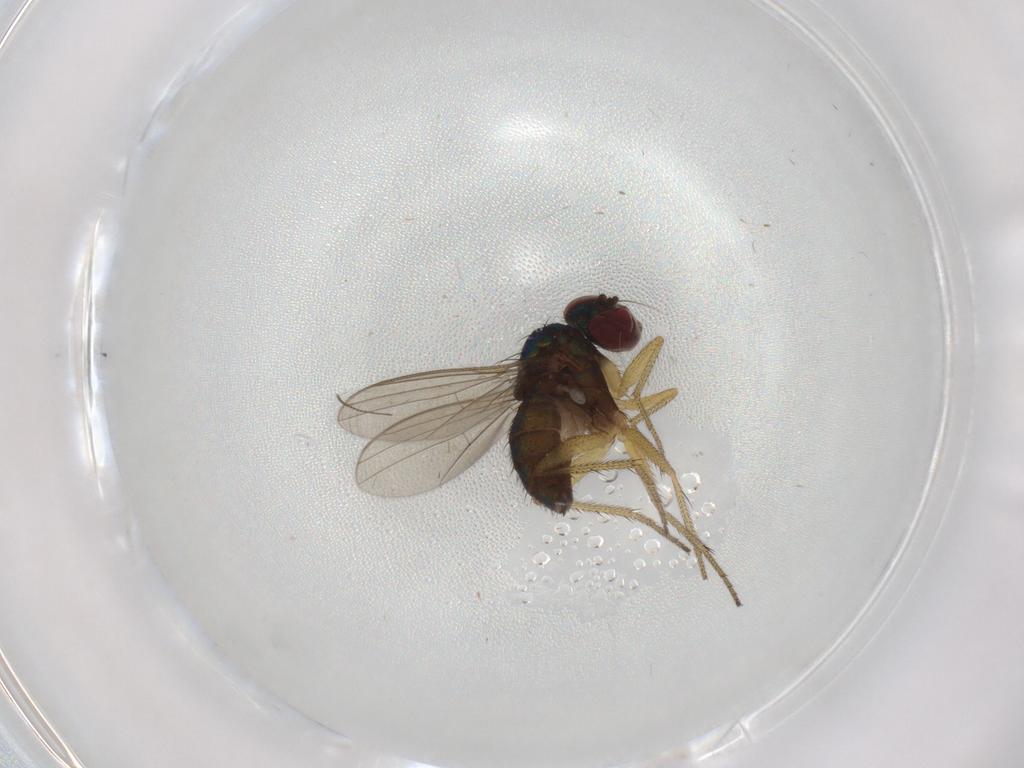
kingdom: Animalia
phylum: Arthropoda
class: Insecta
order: Diptera
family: Dolichopodidae
